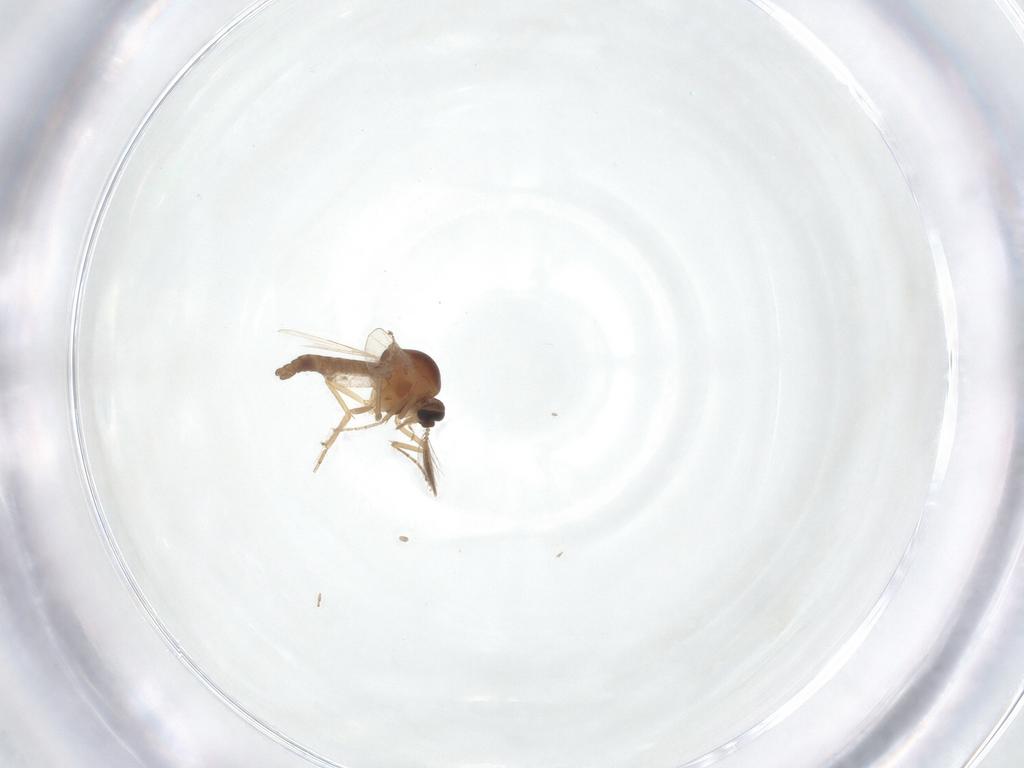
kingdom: Animalia
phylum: Arthropoda
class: Insecta
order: Diptera
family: Ceratopogonidae
